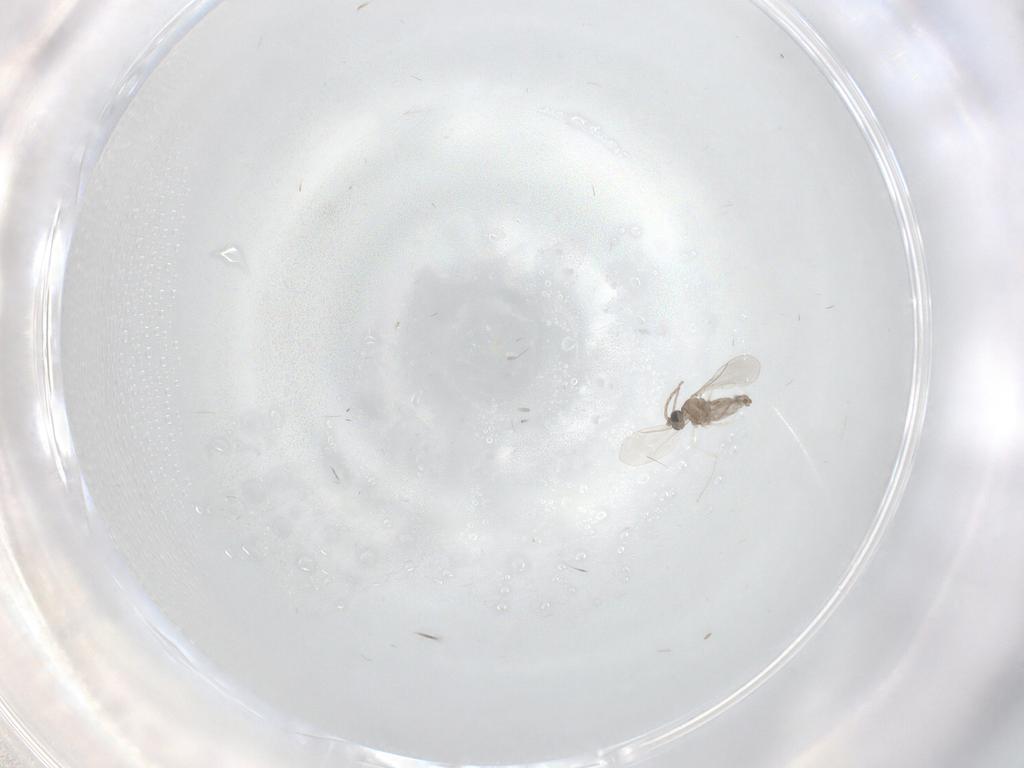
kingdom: Animalia
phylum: Arthropoda
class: Insecta
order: Diptera
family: Cecidomyiidae
